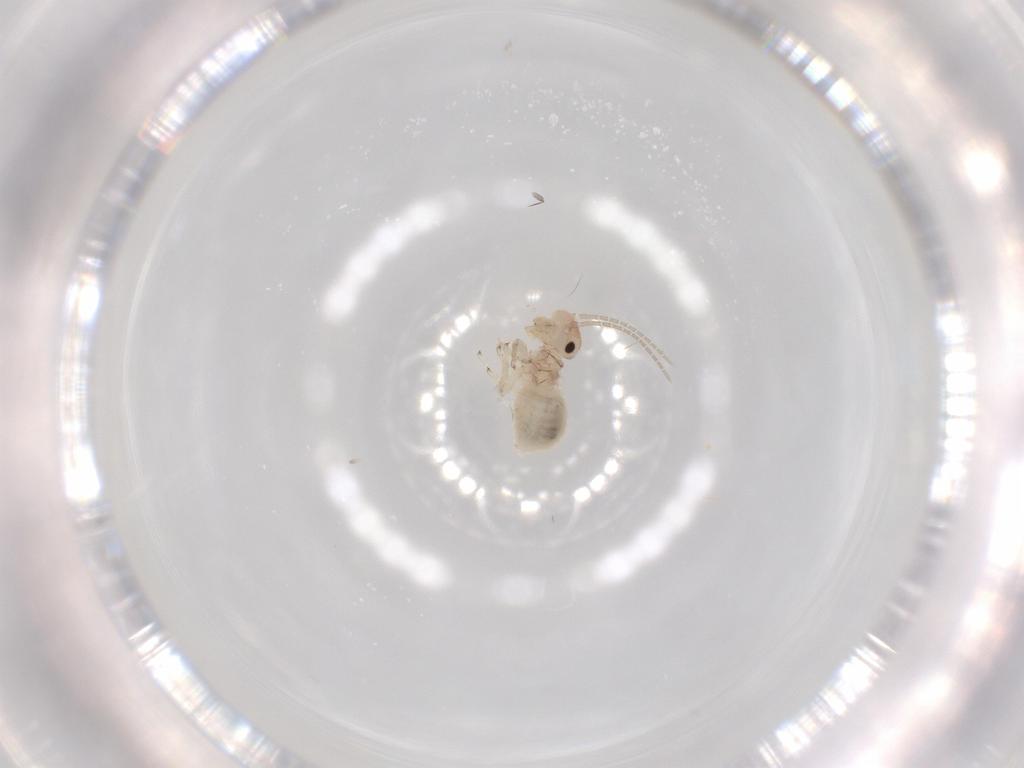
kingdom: Animalia
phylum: Arthropoda
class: Insecta
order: Psocodea
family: Amphipsocidae
